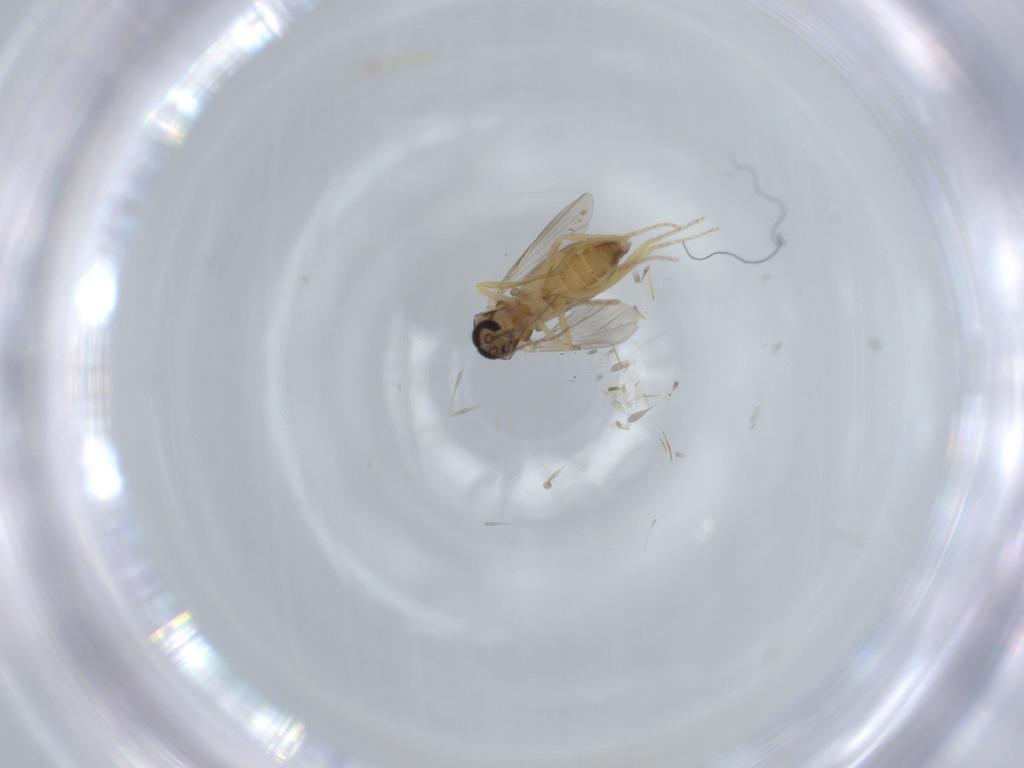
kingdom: Animalia
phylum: Arthropoda
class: Insecta
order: Diptera
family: Ceratopogonidae
